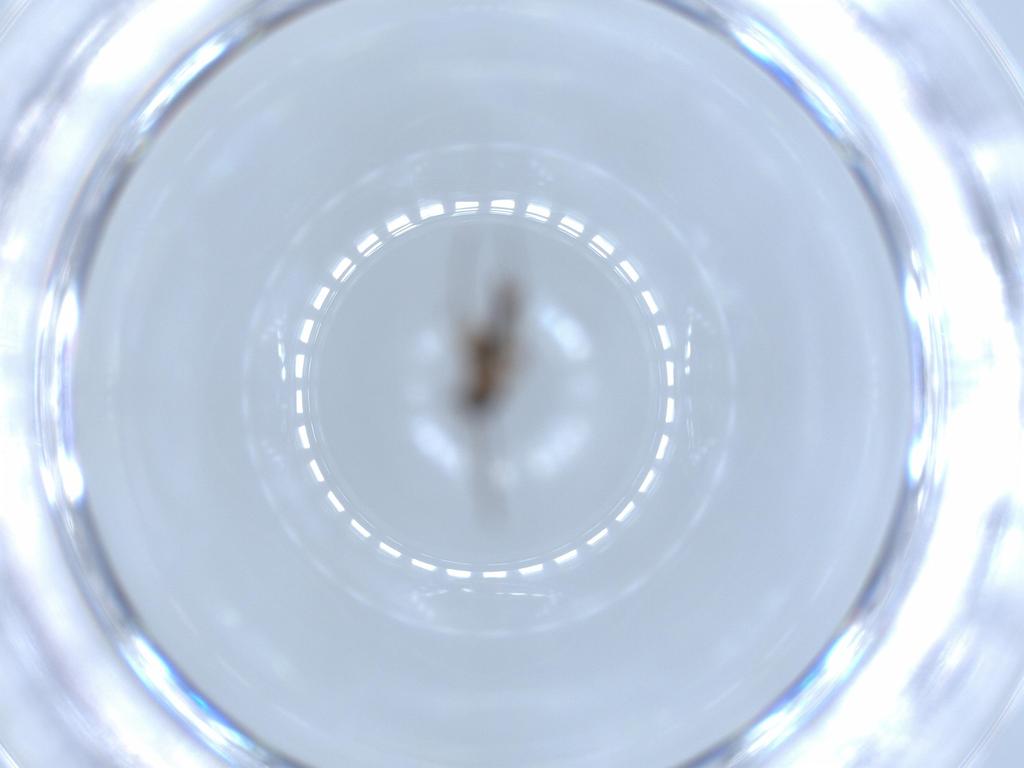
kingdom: Animalia
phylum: Arthropoda
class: Insecta
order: Diptera
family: Sciaridae
